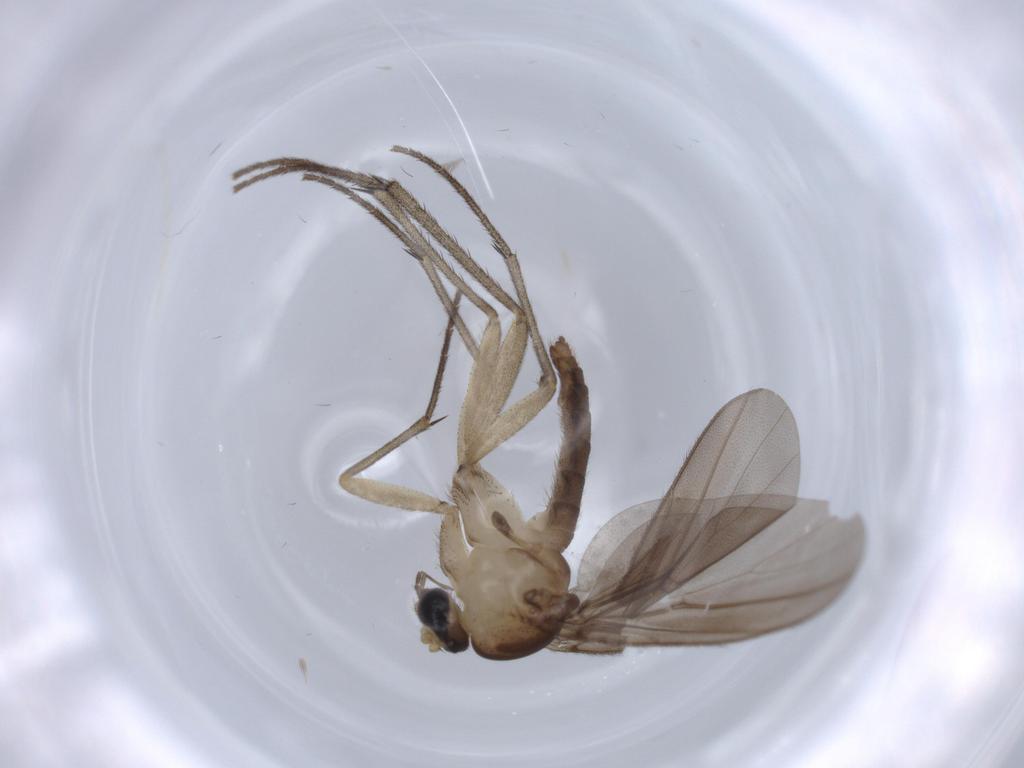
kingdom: Animalia
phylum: Arthropoda
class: Insecta
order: Diptera
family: Diadocidiidae
